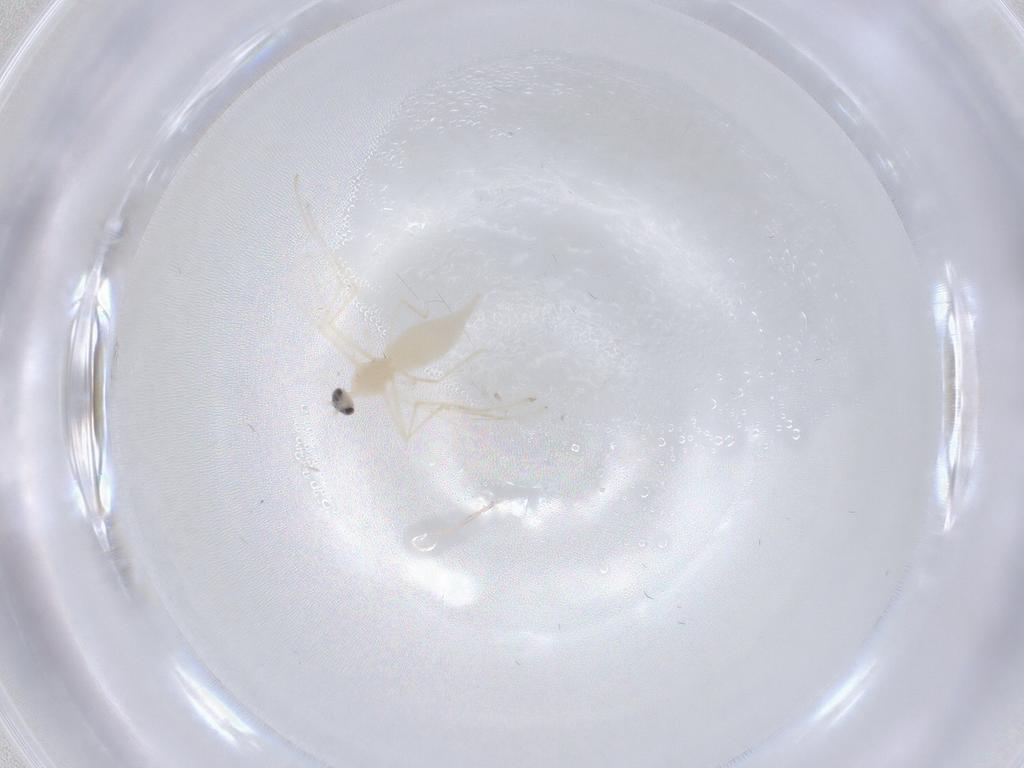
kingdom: Animalia
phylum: Arthropoda
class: Insecta
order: Diptera
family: Cecidomyiidae
